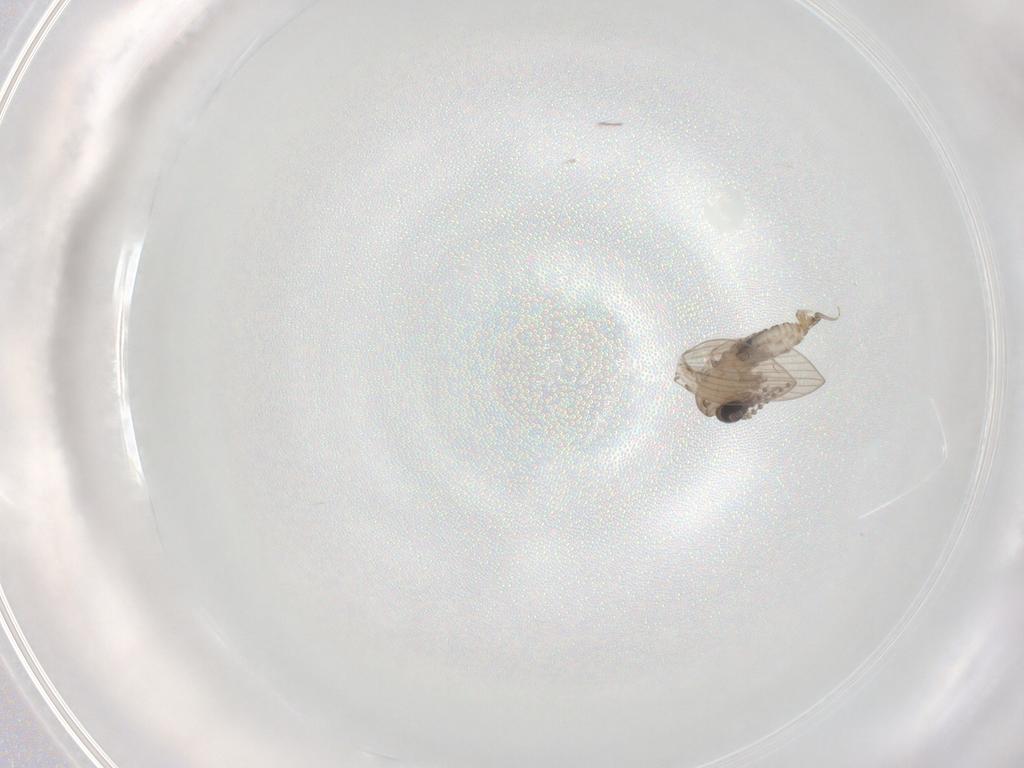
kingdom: Animalia
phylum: Arthropoda
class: Insecta
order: Diptera
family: Psychodidae
